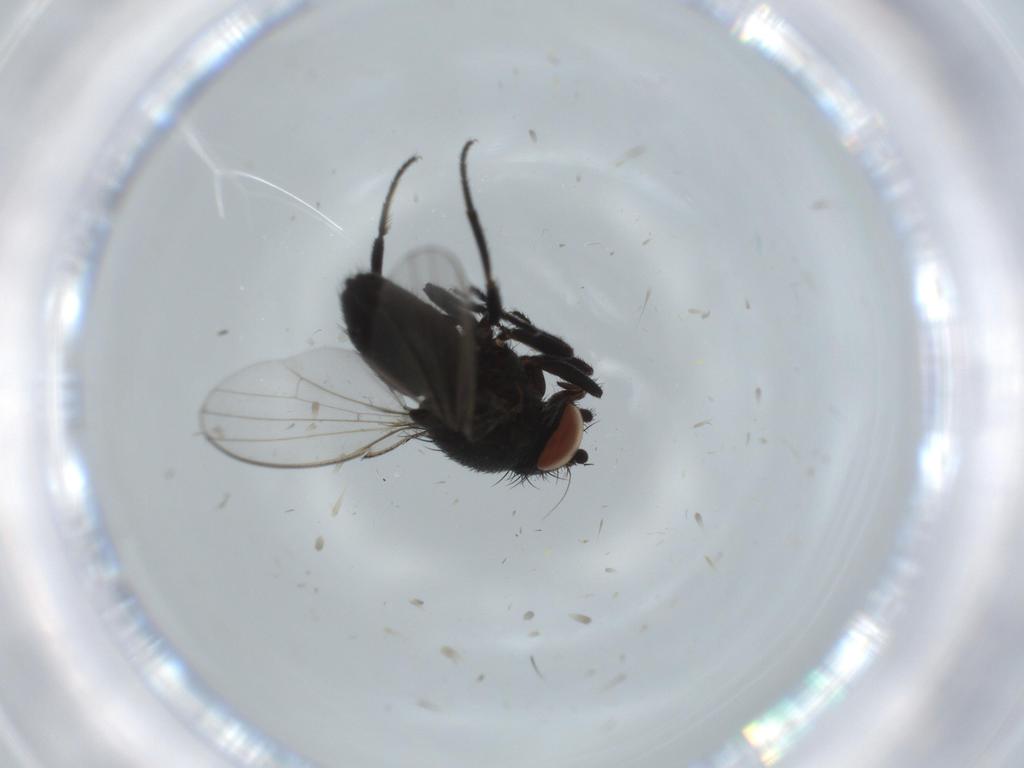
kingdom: Animalia
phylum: Arthropoda
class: Insecta
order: Diptera
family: Milichiidae
